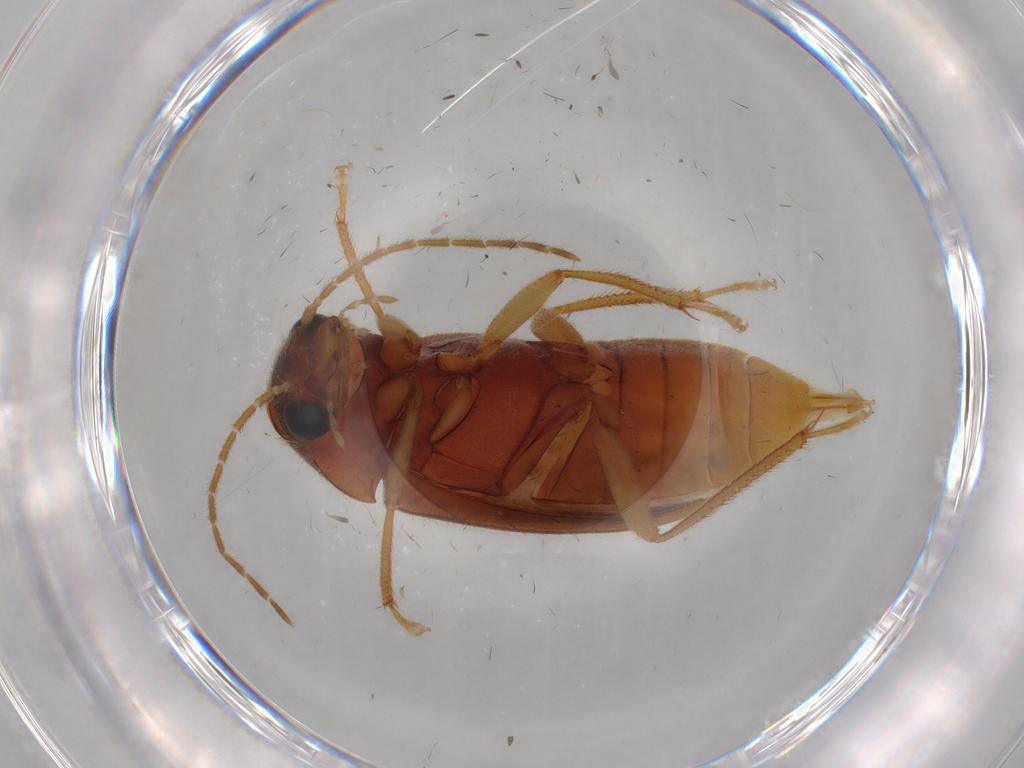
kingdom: Animalia
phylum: Arthropoda
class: Insecta
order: Coleoptera
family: Ptilodactylidae
